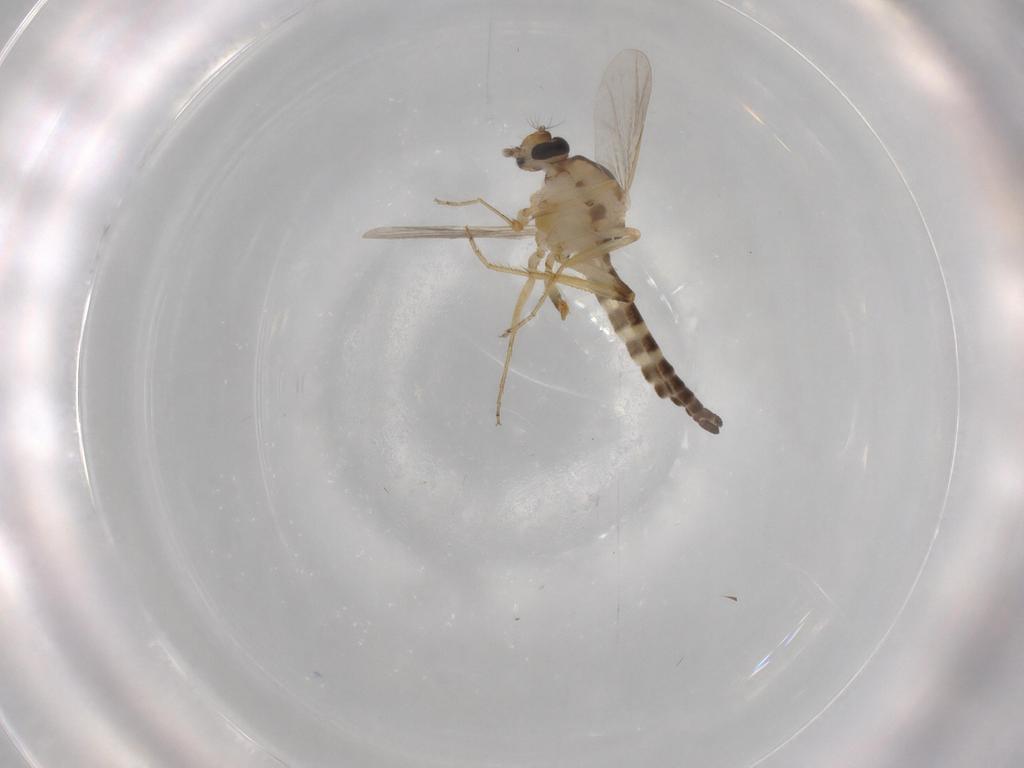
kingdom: Animalia
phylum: Arthropoda
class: Insecta
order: Diptera
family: Ceratopogonidae
